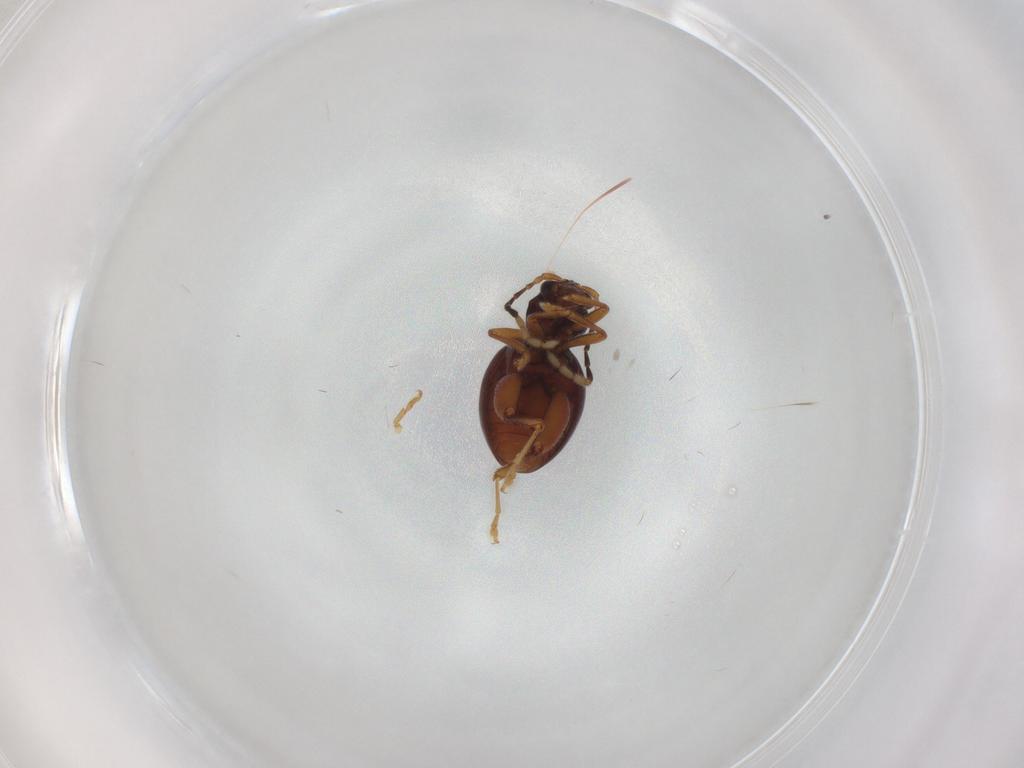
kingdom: Animalia
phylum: Arthropoda
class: Insecta
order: Coleoptera
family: Chrysomelidae
